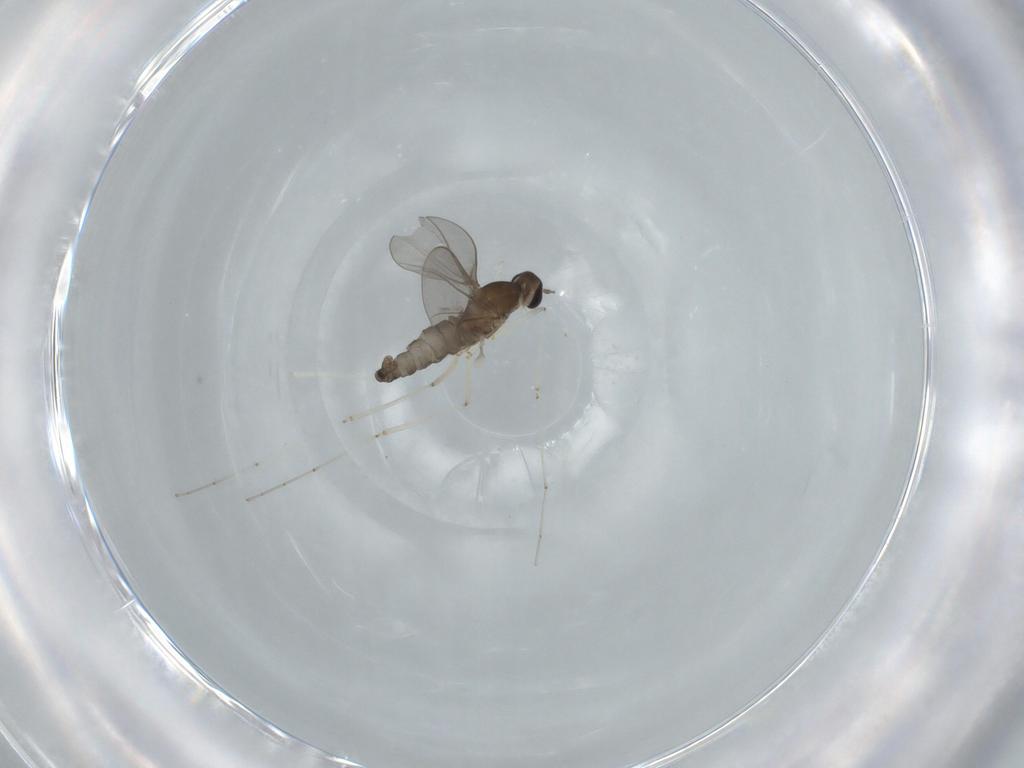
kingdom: Animalia
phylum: Arthropoda
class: Insecta
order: Diptera
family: Cecidomyiidae
